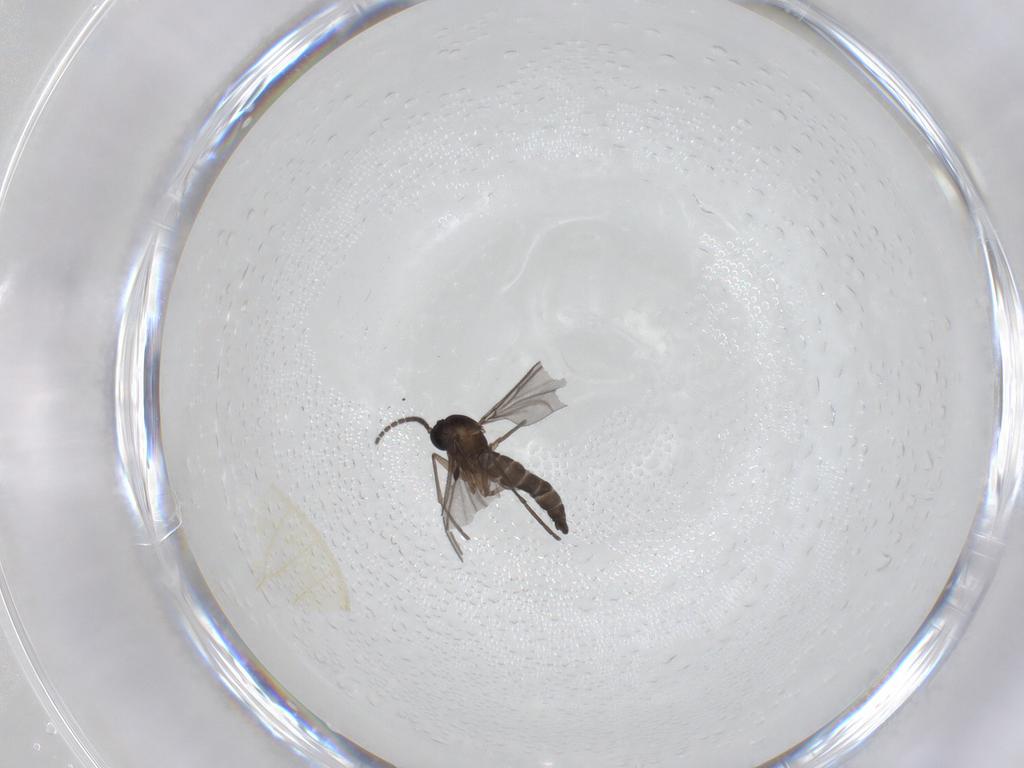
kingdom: Animalia
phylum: Arthropoda
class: Insecta
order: Diptera
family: Sciaridae
